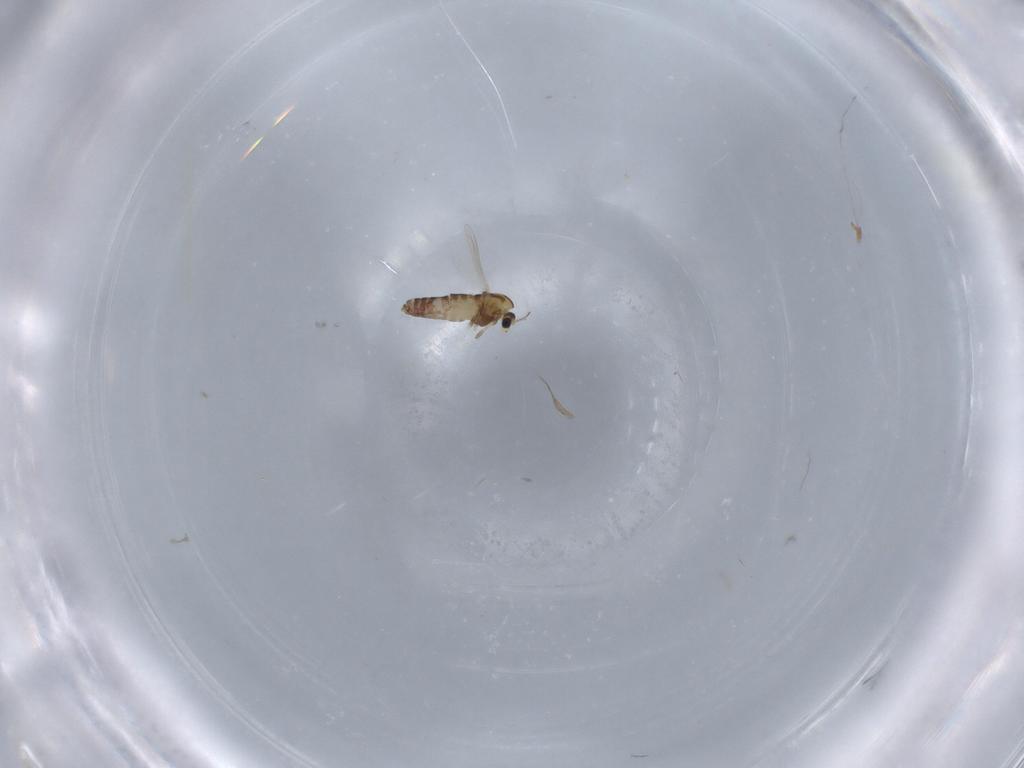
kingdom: Animalia
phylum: Arthropoda
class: Insecta
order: Diptera
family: Chironomidae
